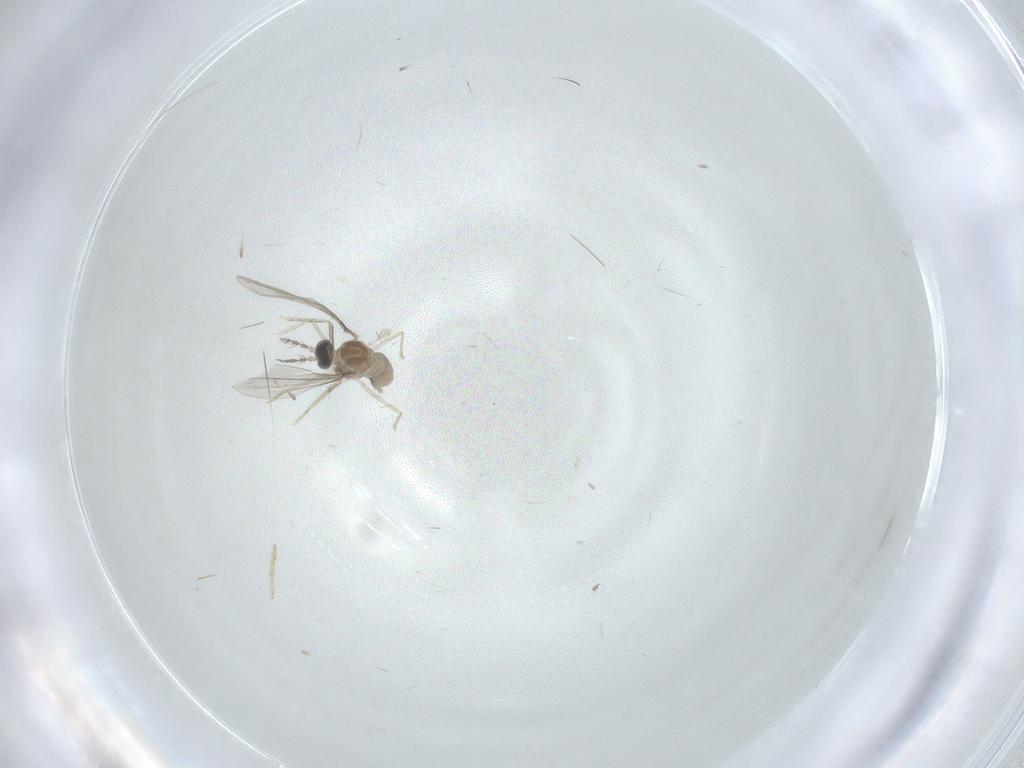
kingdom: Animalia
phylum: Arthropoda
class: Insecta
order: Diptera
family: Cecidomyiidae
